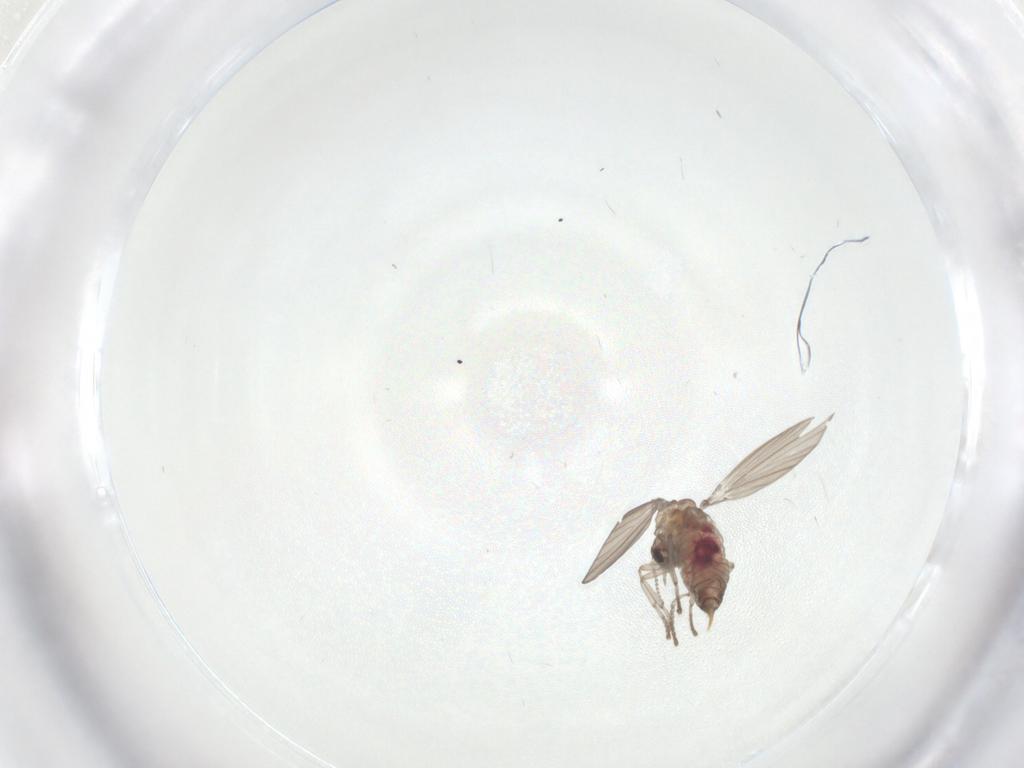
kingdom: Animalia
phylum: Arthropoda
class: Insecta
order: Diptera
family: Psychodidae
